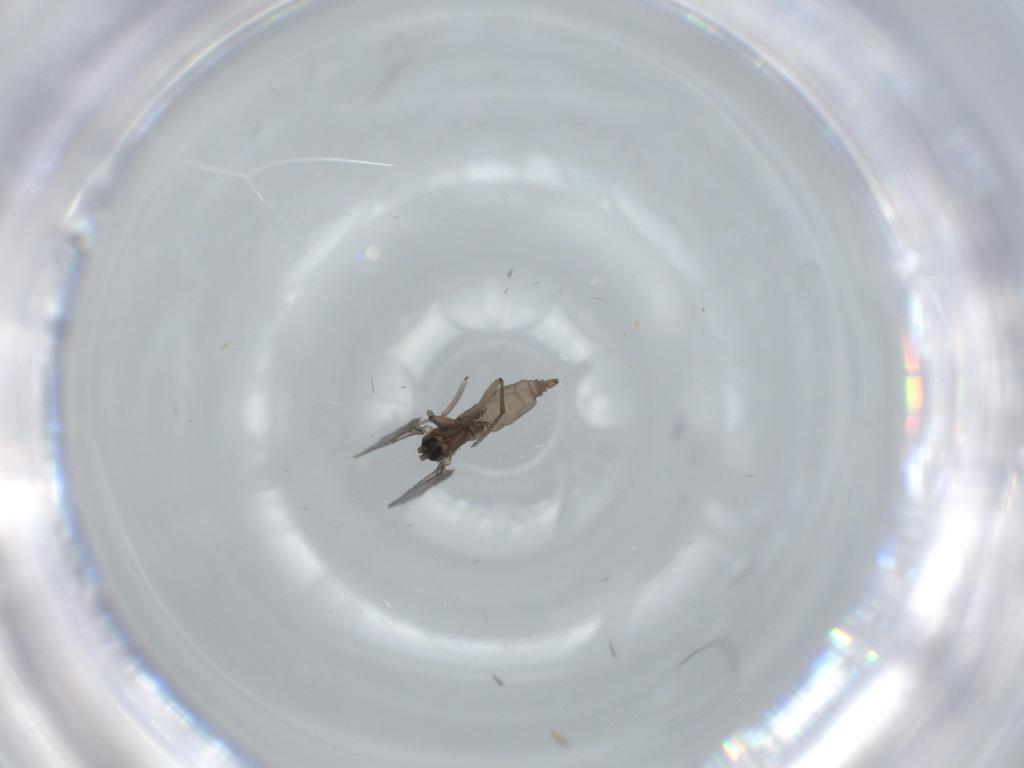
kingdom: Animalia
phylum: Arthropoda
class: Insecta
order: Diptera
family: Sciaridae
